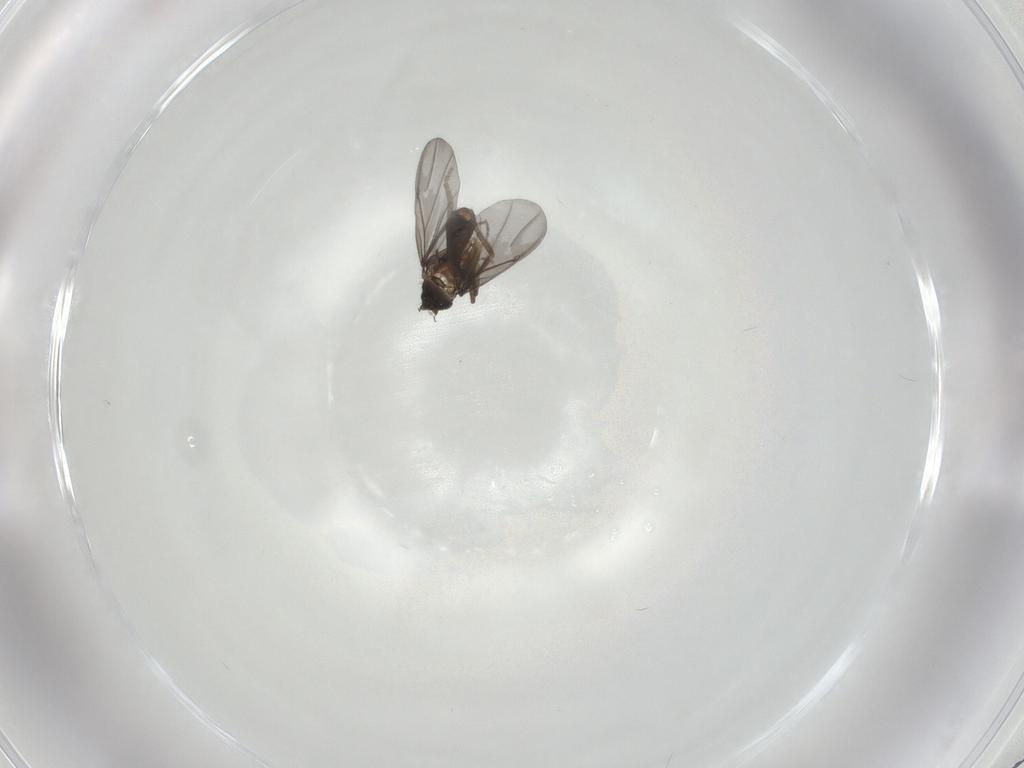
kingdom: Animalia
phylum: Arthropoda
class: Insecta
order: Diptera
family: Phoridae
